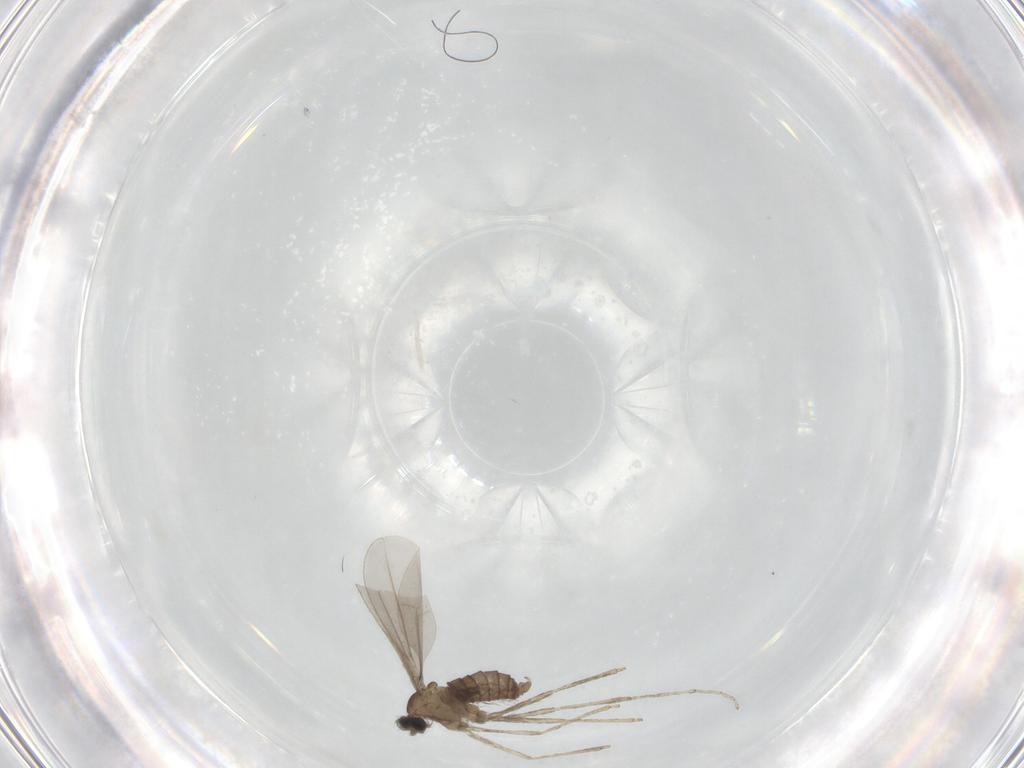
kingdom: Animalia
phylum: Arthropoda
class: Insecta
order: Diptera
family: Cecidomyiidae
